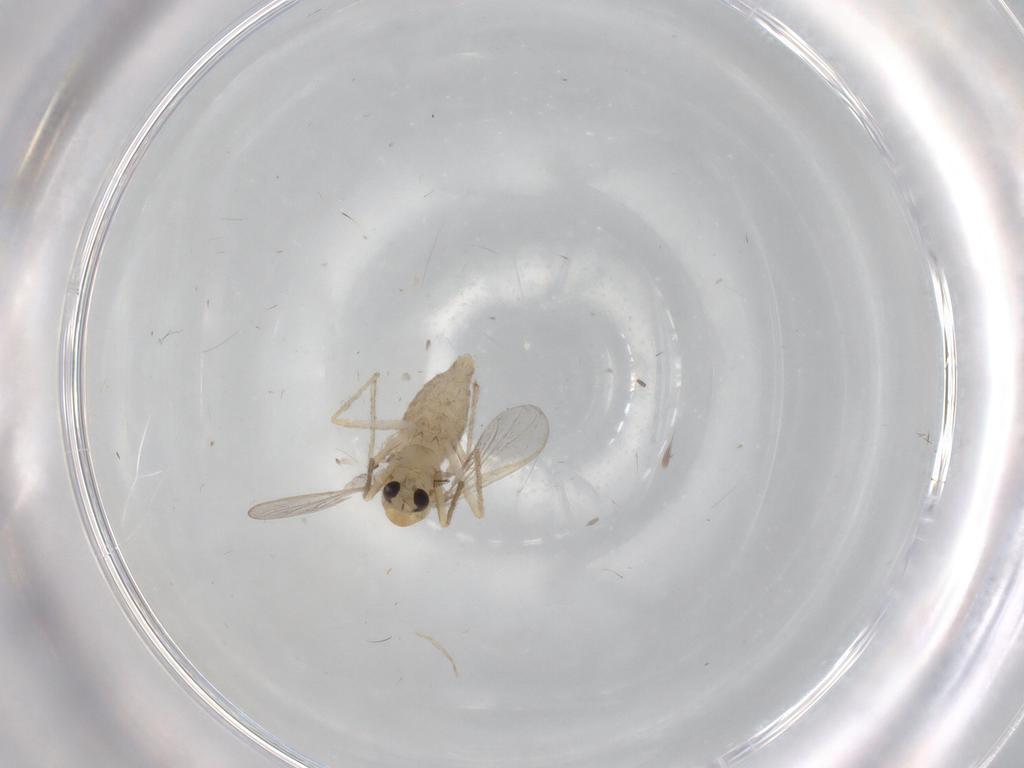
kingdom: Animalia
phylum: Arthropoda
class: Insecta
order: Diptera
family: Chironomidae
